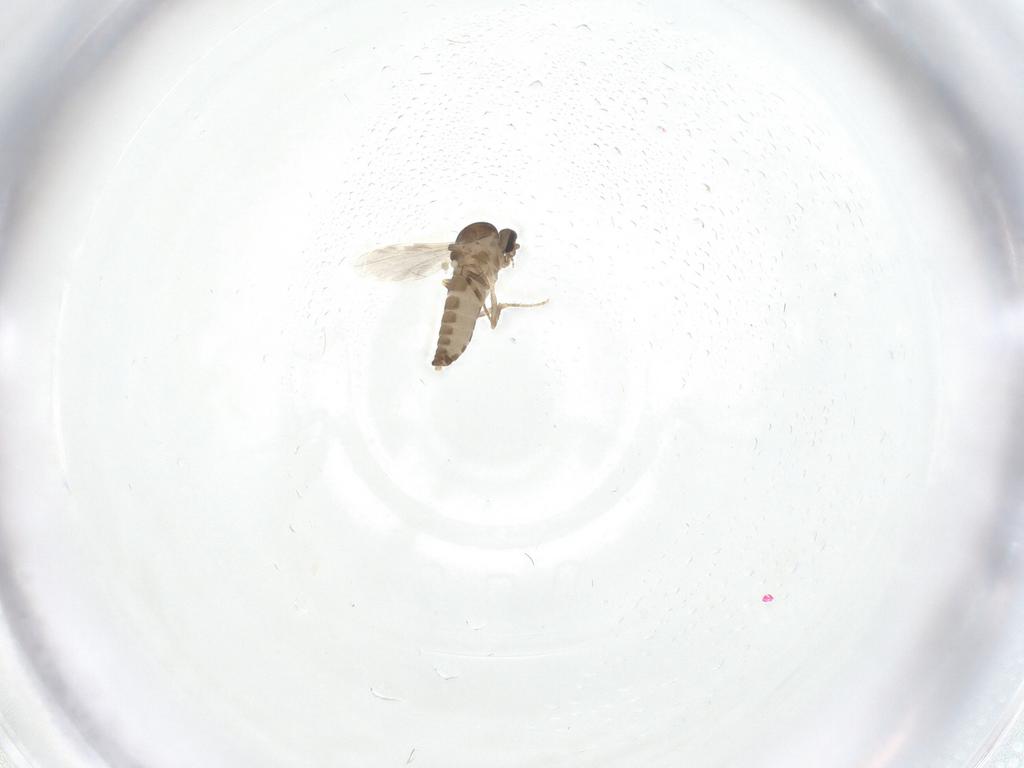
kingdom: Animalia
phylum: Arthropoda
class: Insecta
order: Diptera
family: Ceratopogonidae
